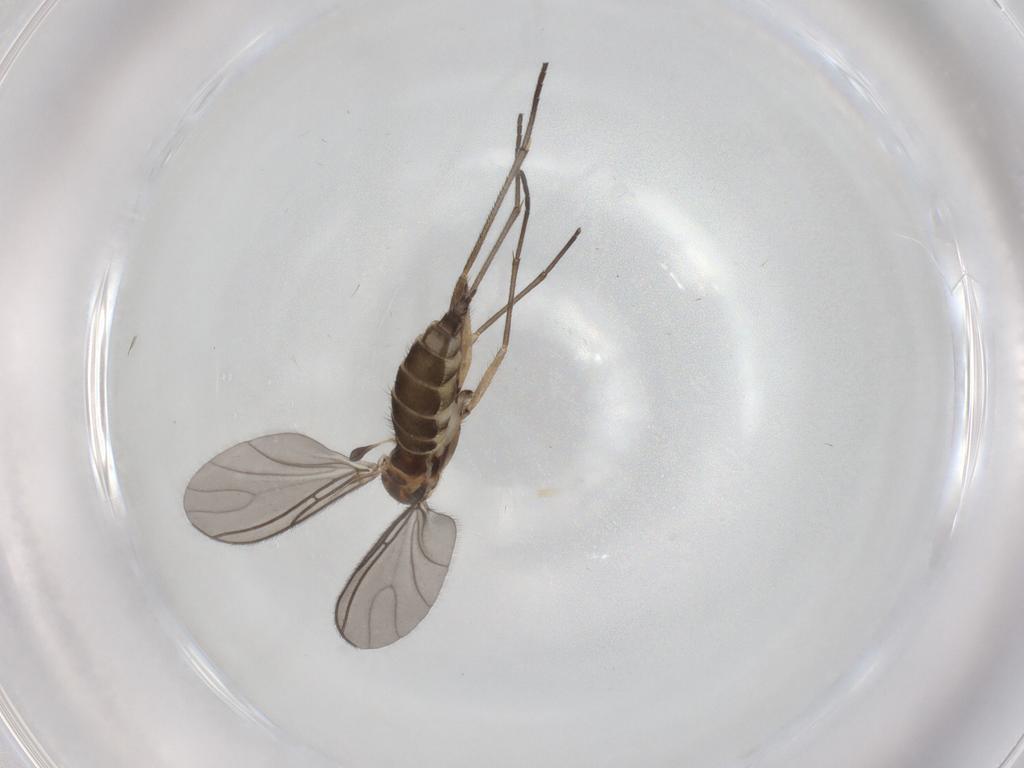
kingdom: Animalia
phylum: Arthropoda
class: Insecta
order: Diptera
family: Sciaridae
